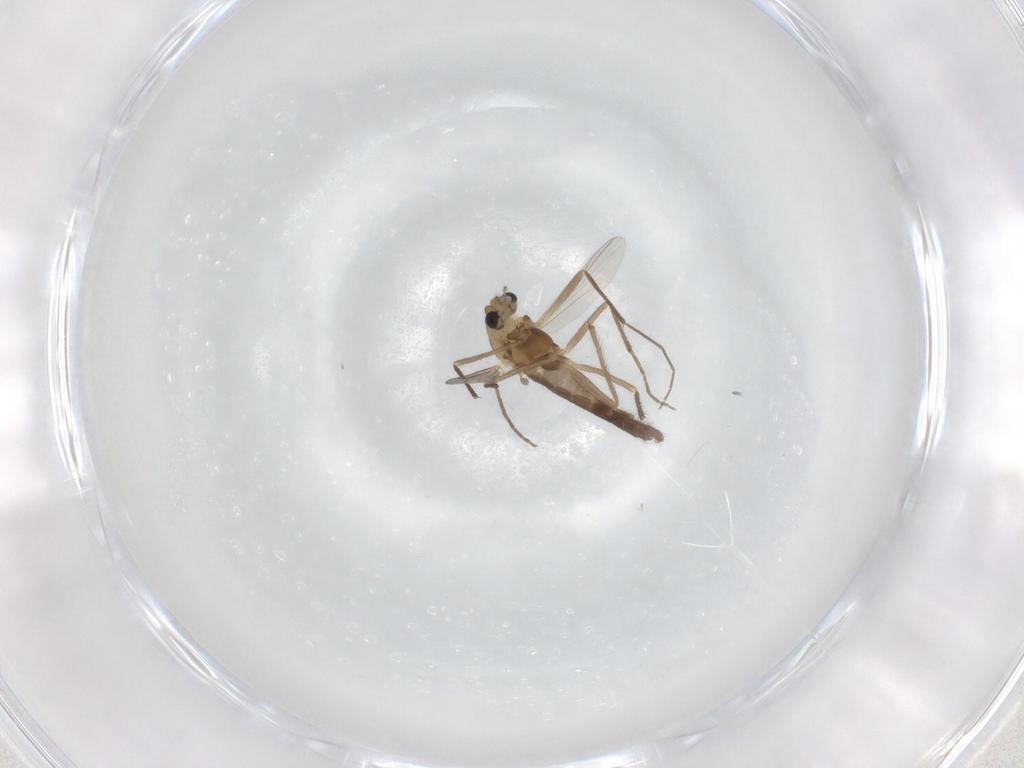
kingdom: Animalia
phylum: Arthropoda
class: Insecta
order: Diptera
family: Chironomidae
